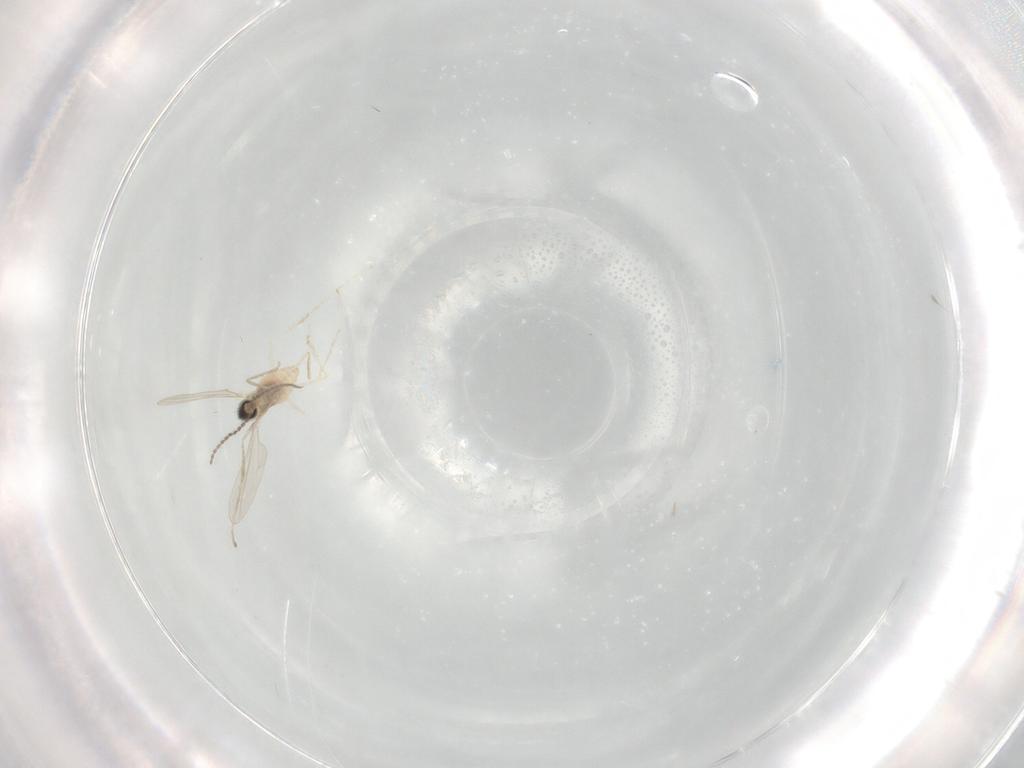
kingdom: Animalia
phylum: Arthropoda
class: Insecta
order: Diptera
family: Cecidomyiidae
